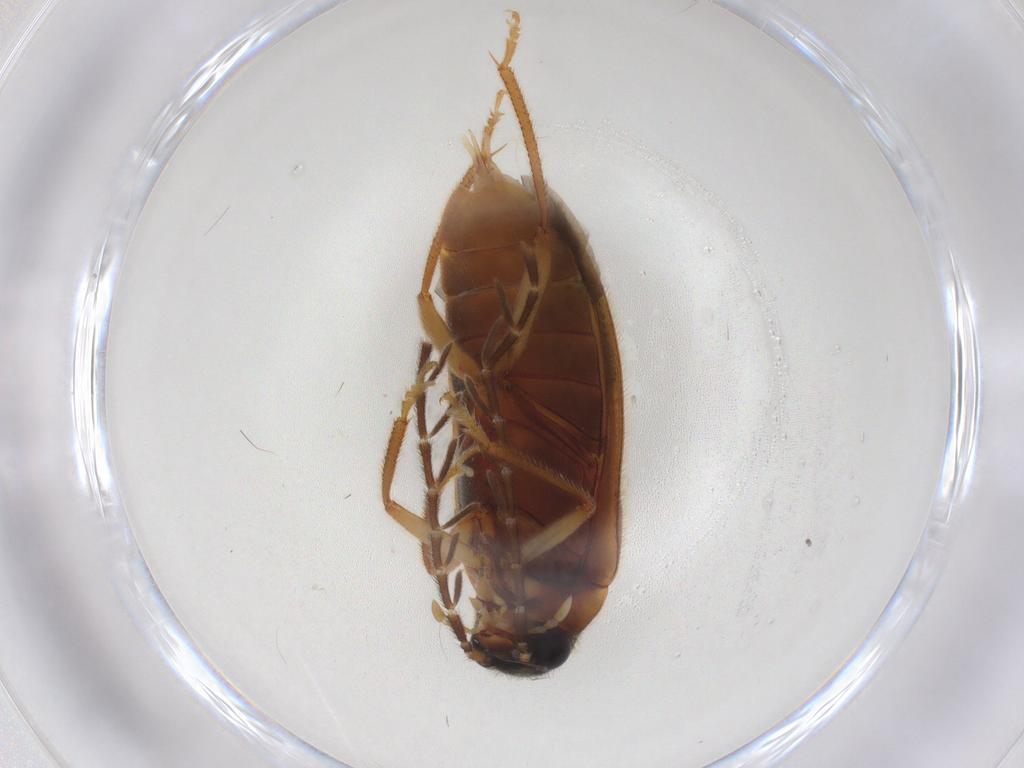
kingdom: Animalia
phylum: Arthropoda
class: Insecta
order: Coleoptera
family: Ptilodactylidae
